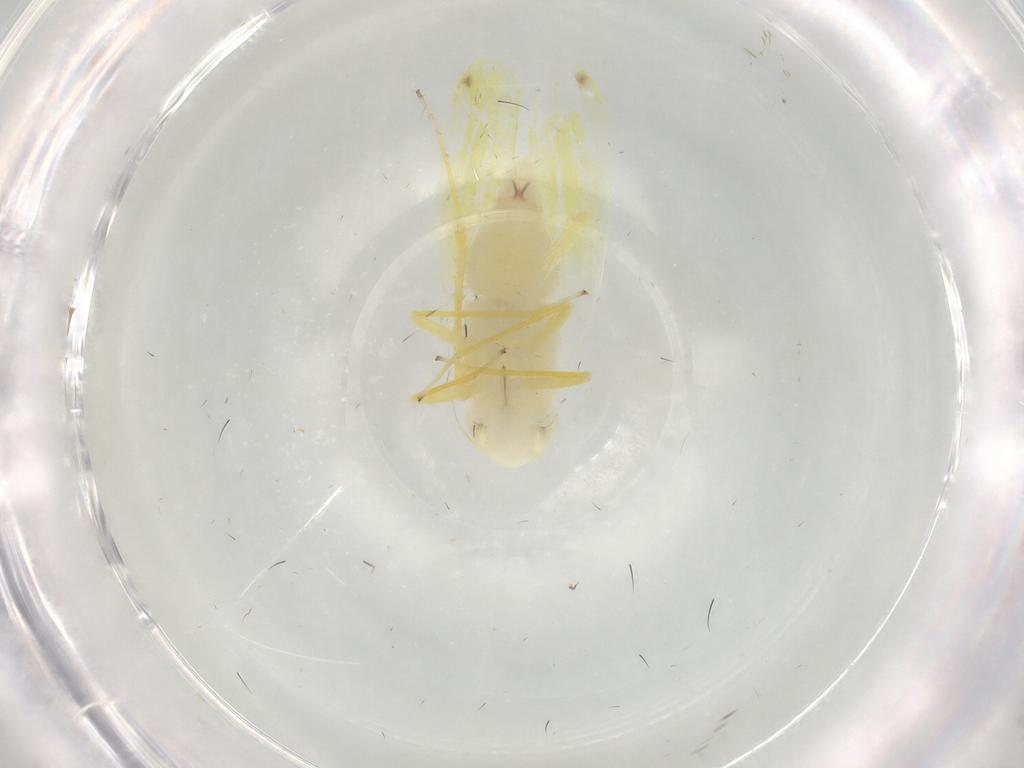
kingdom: Animalia
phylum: Arthropoda
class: Insecta
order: Hemiptera
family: Cicadellidae
